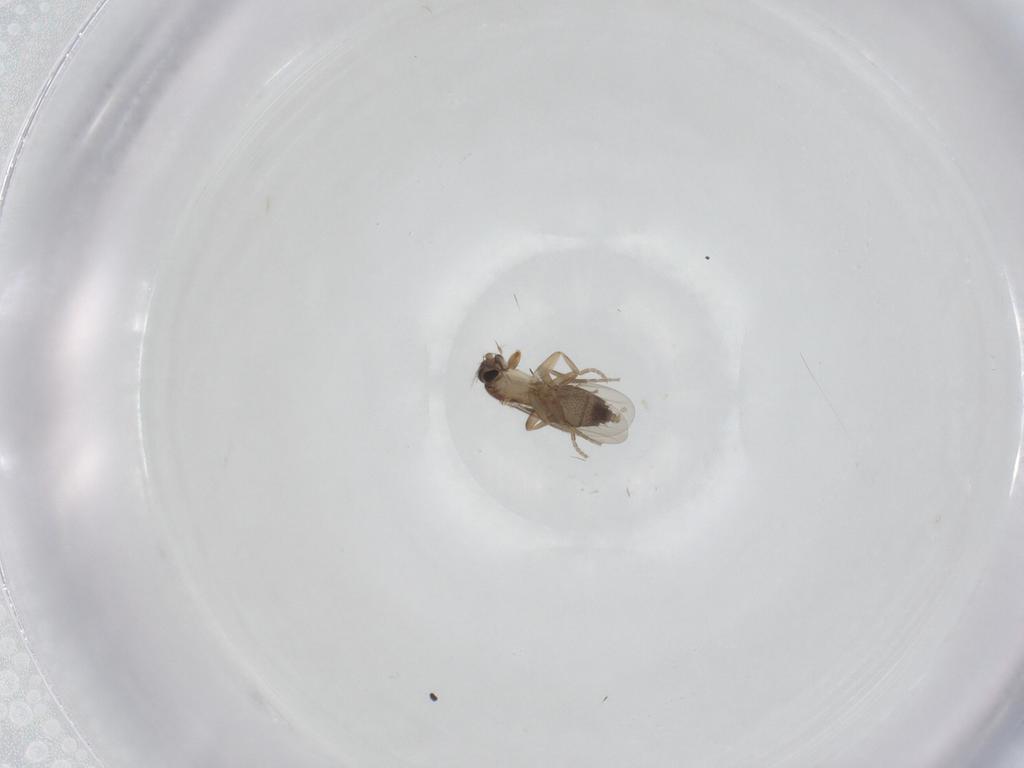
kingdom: Animalia
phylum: Arthropoda
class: Insecta
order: Diptera
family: Phoridae
